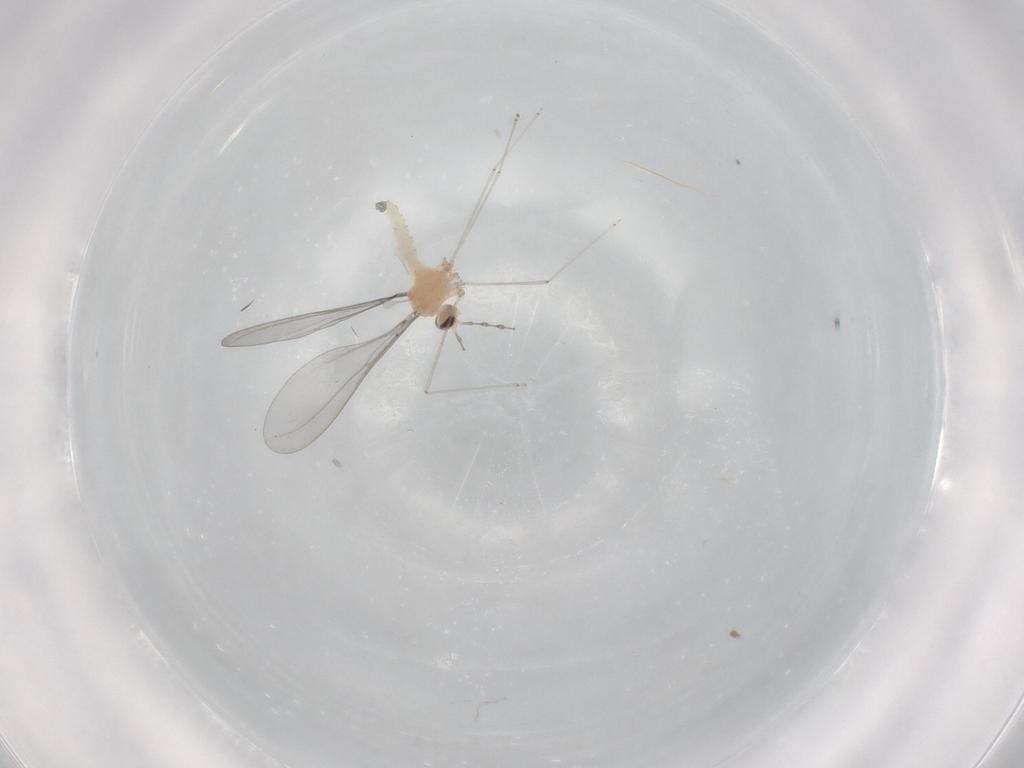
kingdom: Animalia
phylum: Arthropoda
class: Insecta
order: Diptera
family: Cecidomyiidae
